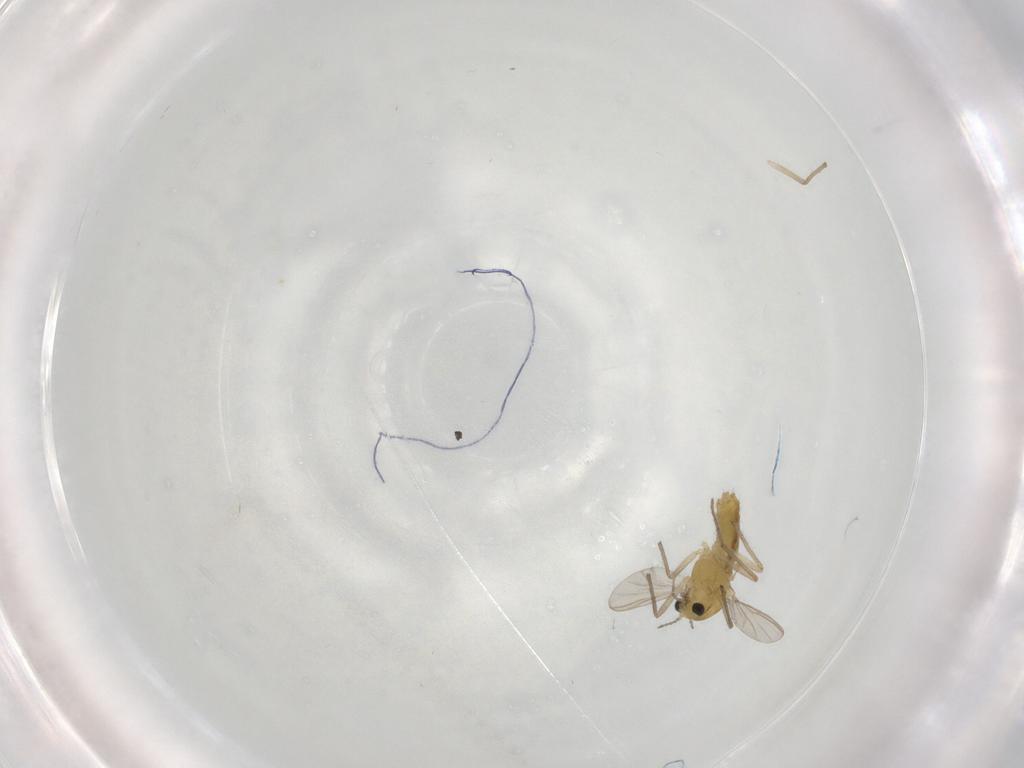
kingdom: Animalia
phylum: Arthropoda
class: Insecta
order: Diptera
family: Chironomidae
